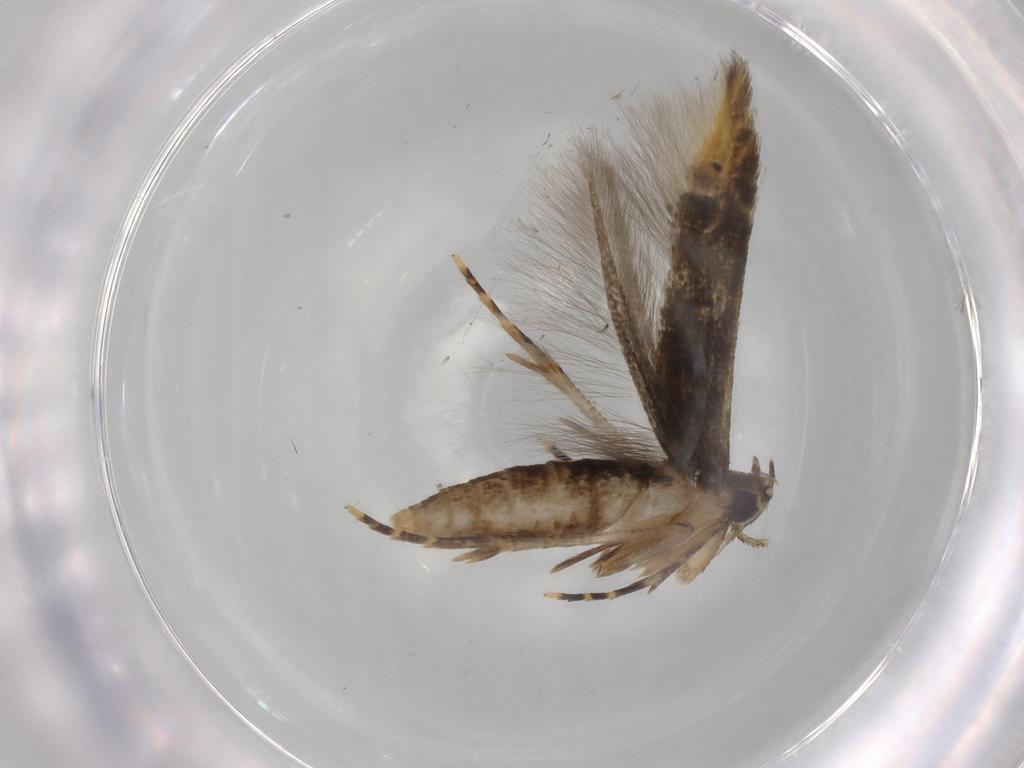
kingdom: Animalia
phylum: Arthropoda
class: Insecta
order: Lepidoptera
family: Cosmopterigidae
